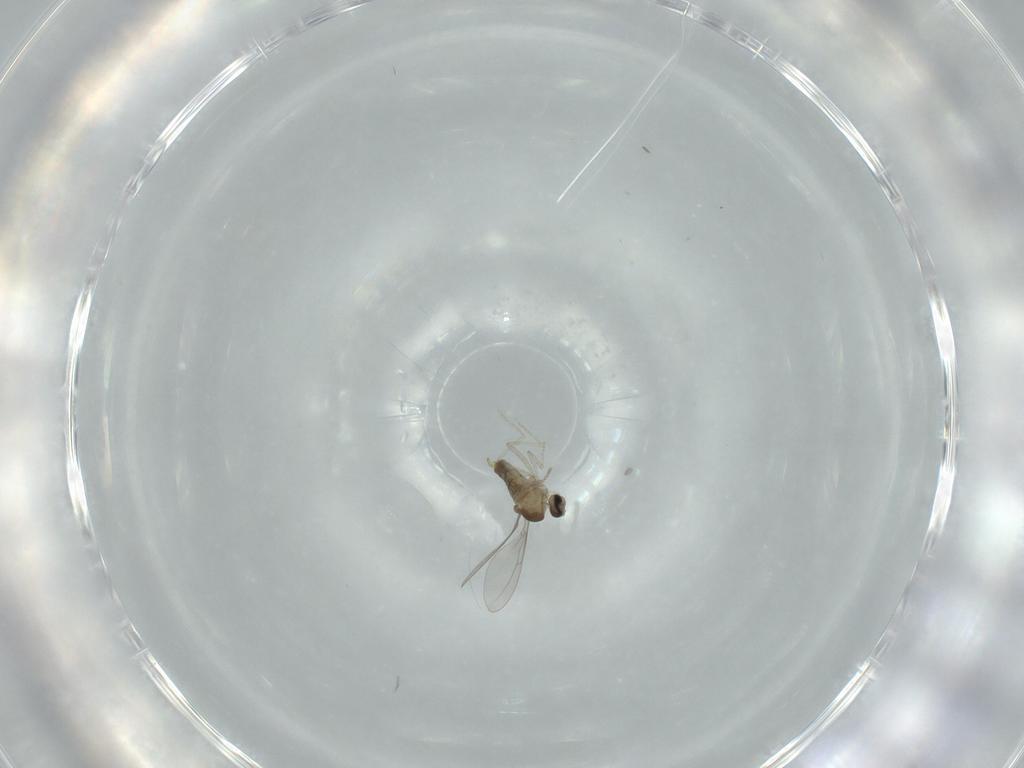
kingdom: Animalia
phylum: Arthropoda
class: Insecta
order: Diptera
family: Cecidomyiidae
